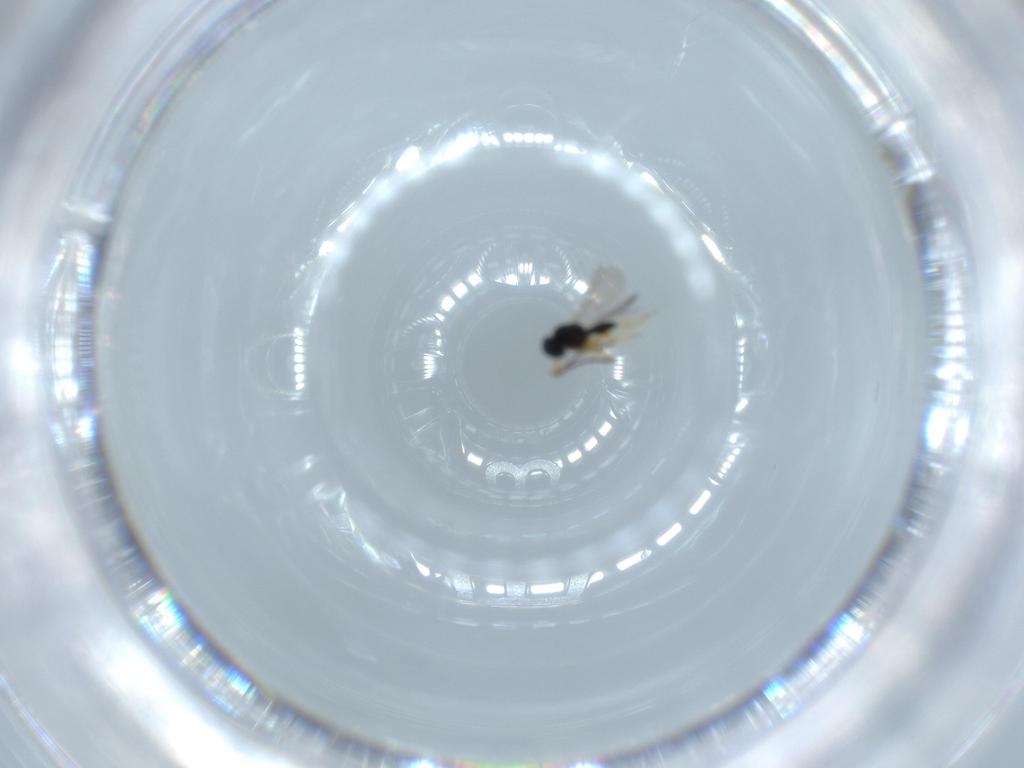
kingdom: Animalia
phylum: Arthropoda
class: Insecta
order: Hymenoptera
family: Scelionidae
